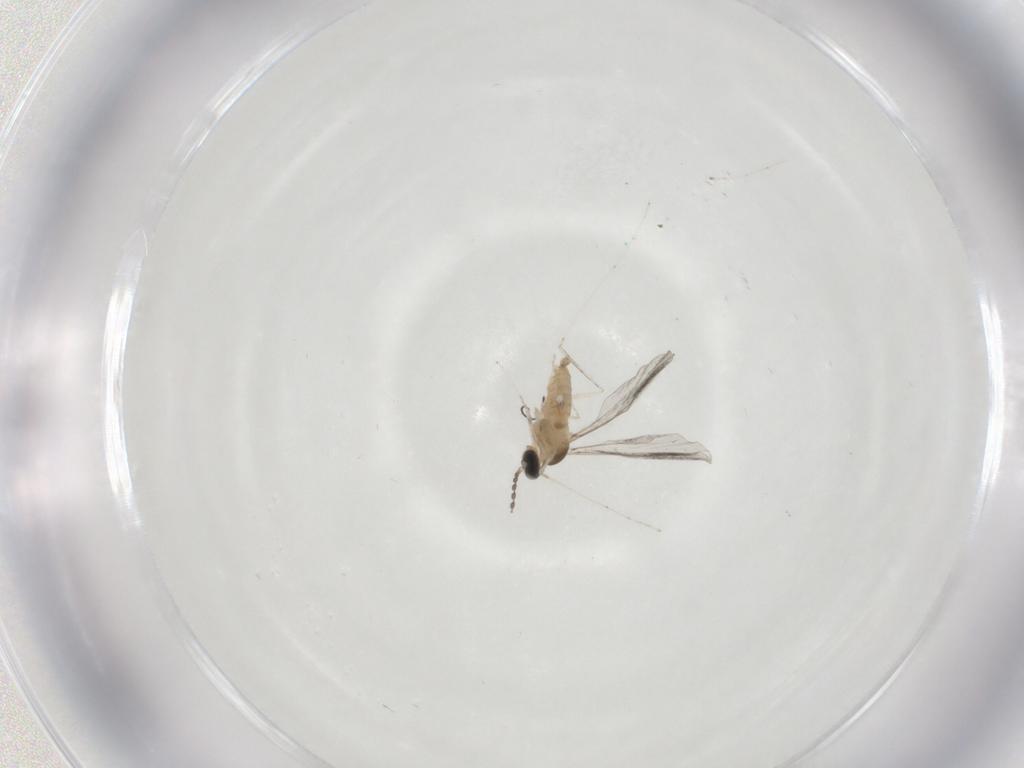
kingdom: Animalia
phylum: Arthropoda
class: Insecta
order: Diptera
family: Cecidomyiidae
